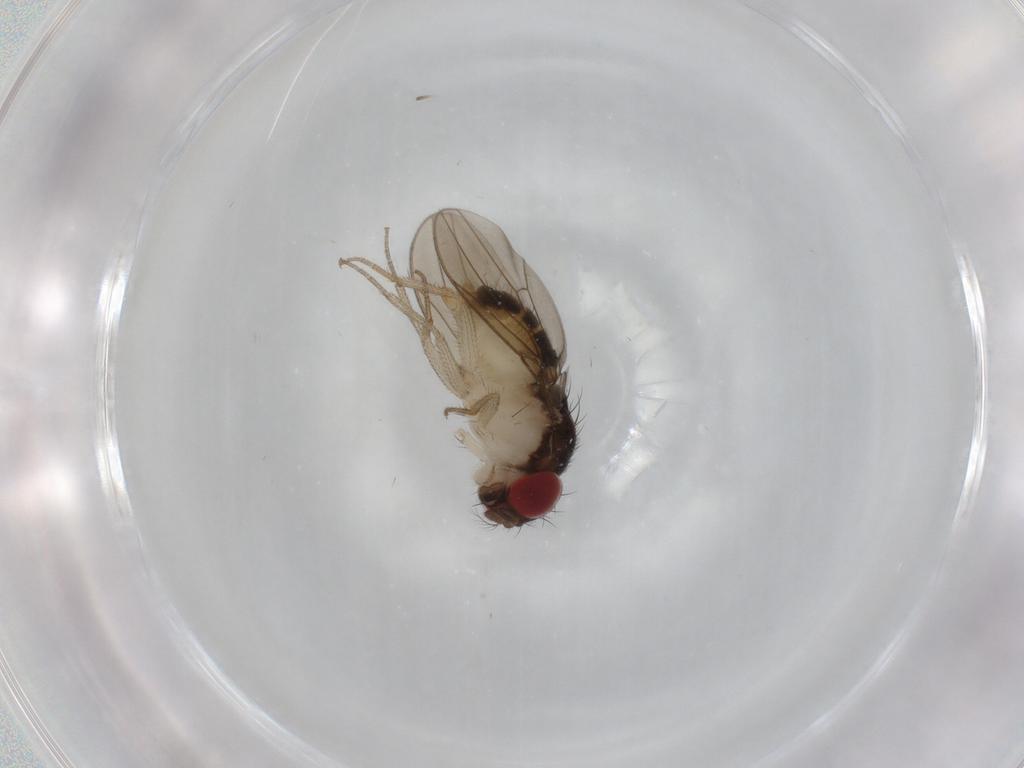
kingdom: Animalia
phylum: Arthropoda
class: Insecta
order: Diptera
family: Drosophilidae
